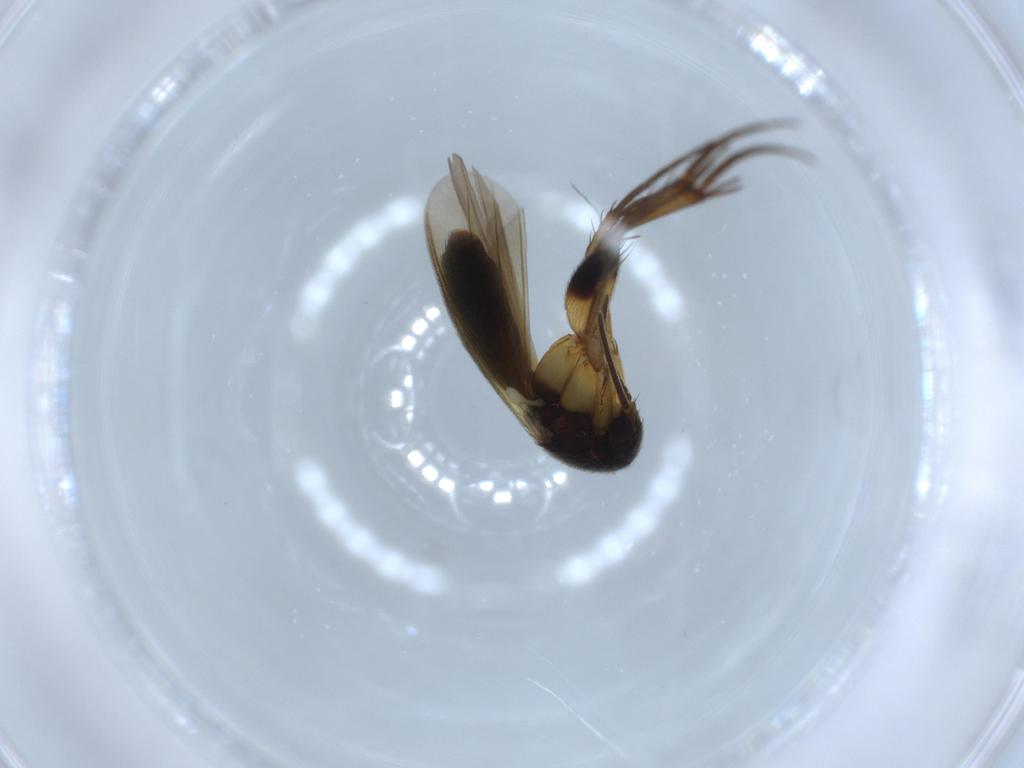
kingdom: Animalia
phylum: Arthropoda
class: Insecta
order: Diptera
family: Anthomyiidae
